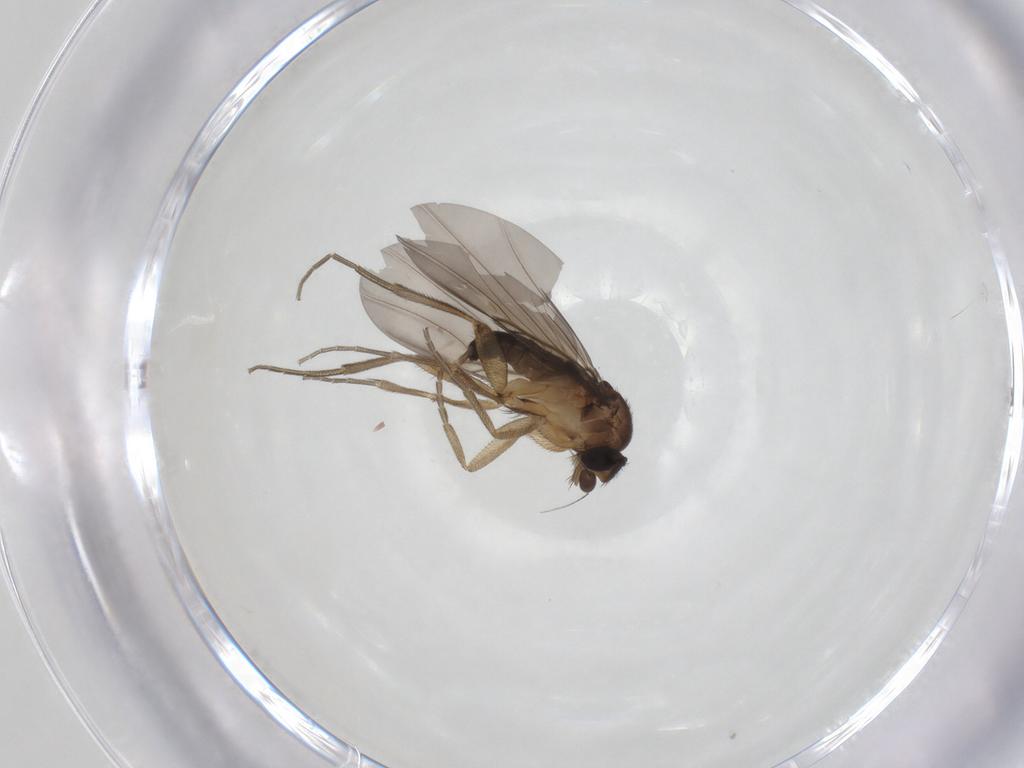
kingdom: Animalia
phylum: Arthropoda
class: Insecta
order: Diptera
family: Phoridae
